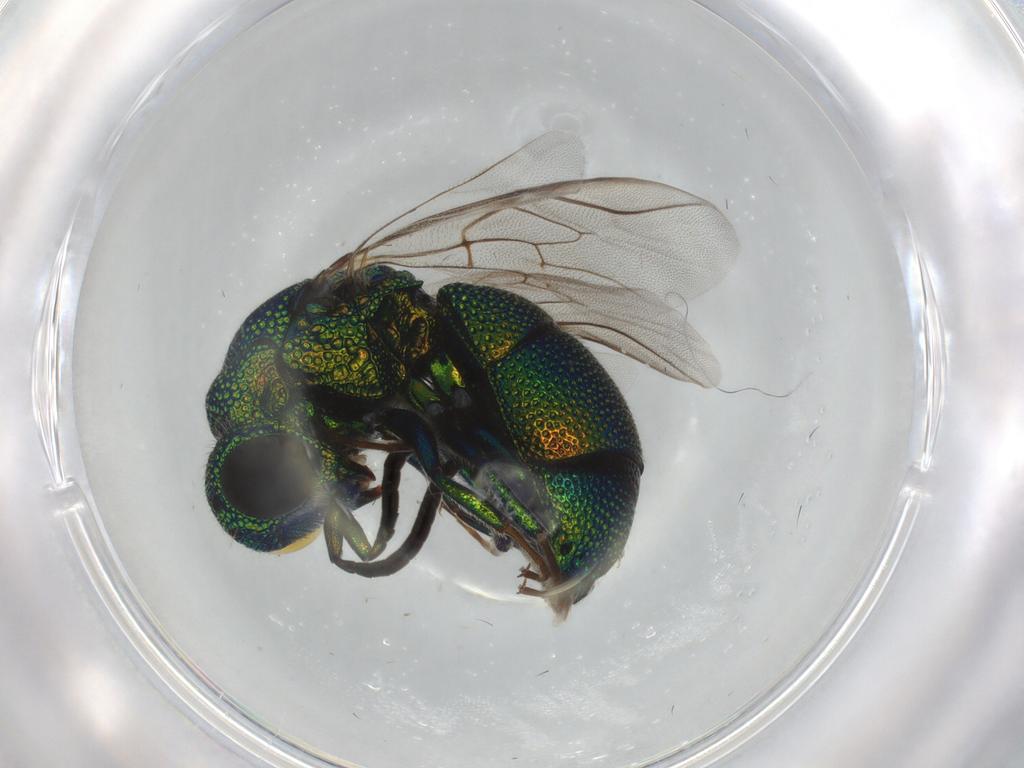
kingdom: Animalia
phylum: Arthropoda
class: Insecta
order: Hymenoptera
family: Chrysididae
